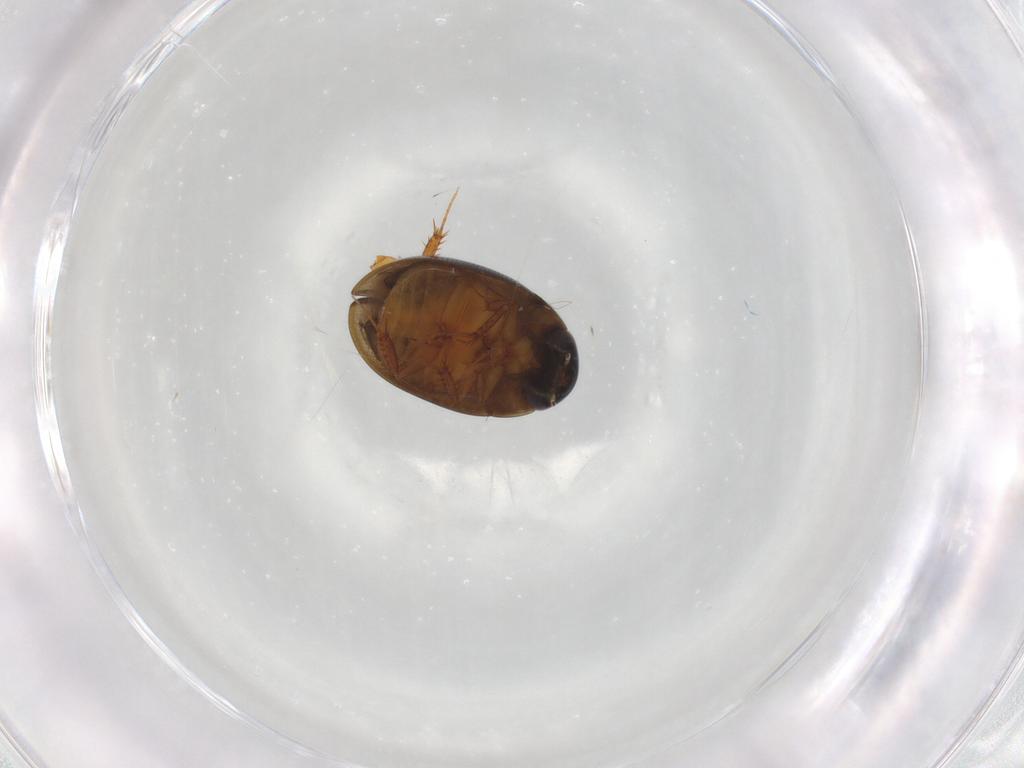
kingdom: Animalia
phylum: Arthropoda
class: Insecta
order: Coleoptera
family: Hydrophilidae
